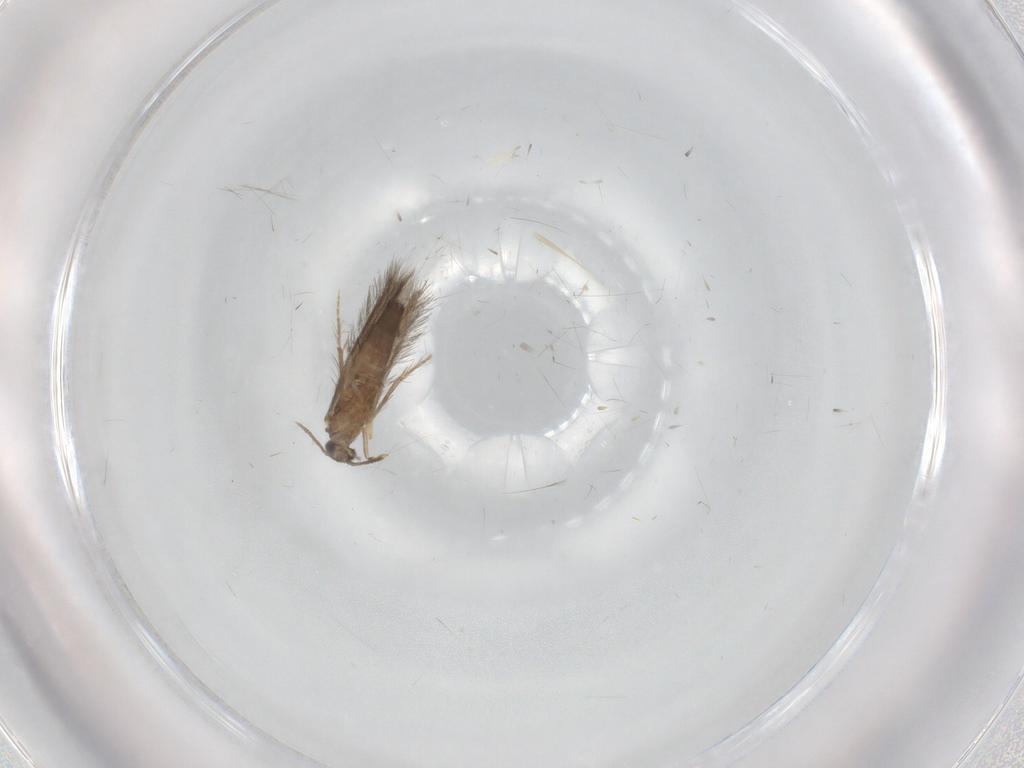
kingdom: Animalia
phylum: Arthropoda
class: Insecta
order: Trichoptera
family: Hydroptilidae
